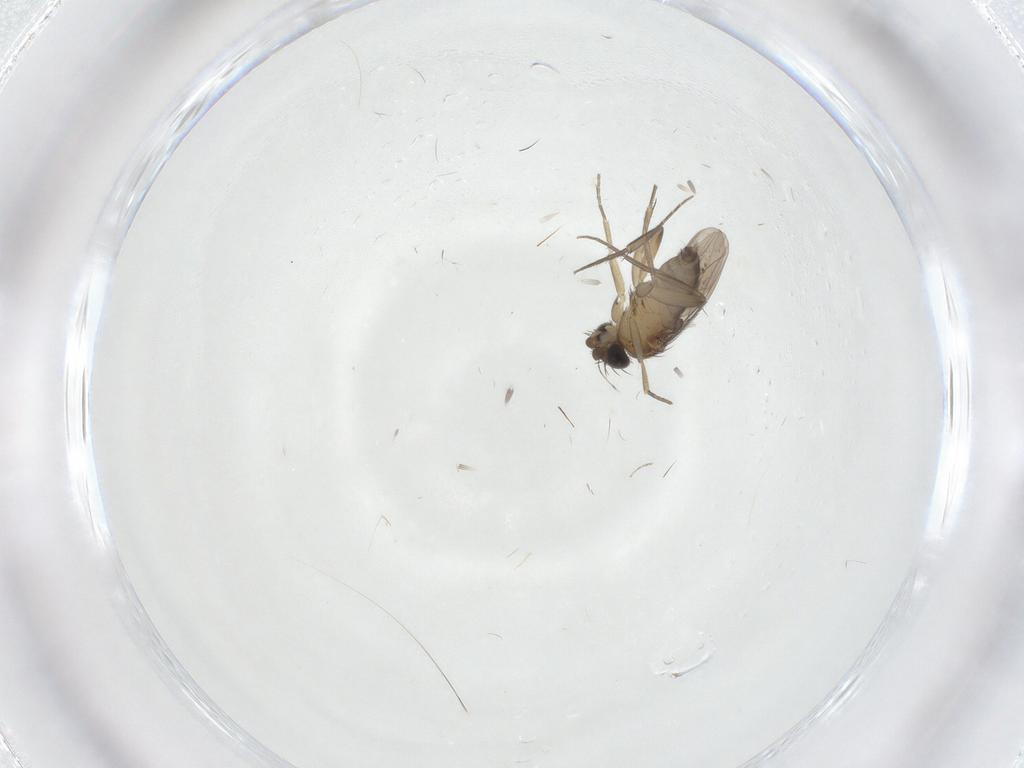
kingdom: Animalia
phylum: Arthropoda
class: Insecta
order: Diptera
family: Phoridae
